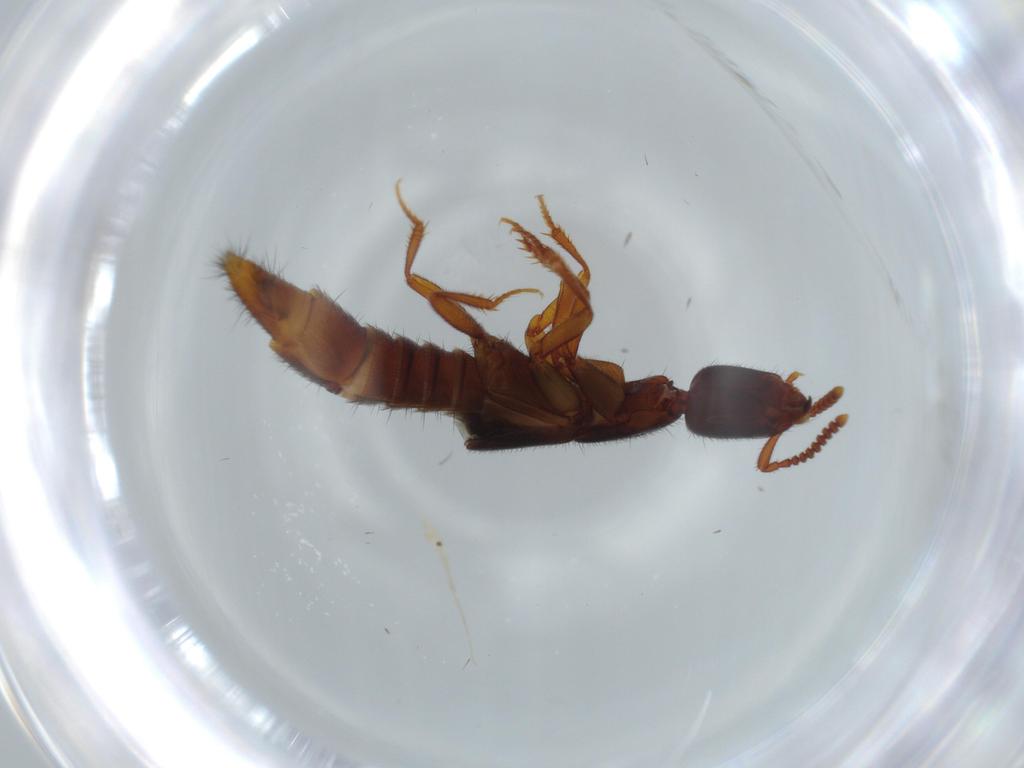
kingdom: Animalia
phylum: Arthropoda
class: Insecta
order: Coleoptera
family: Staphylinidae
